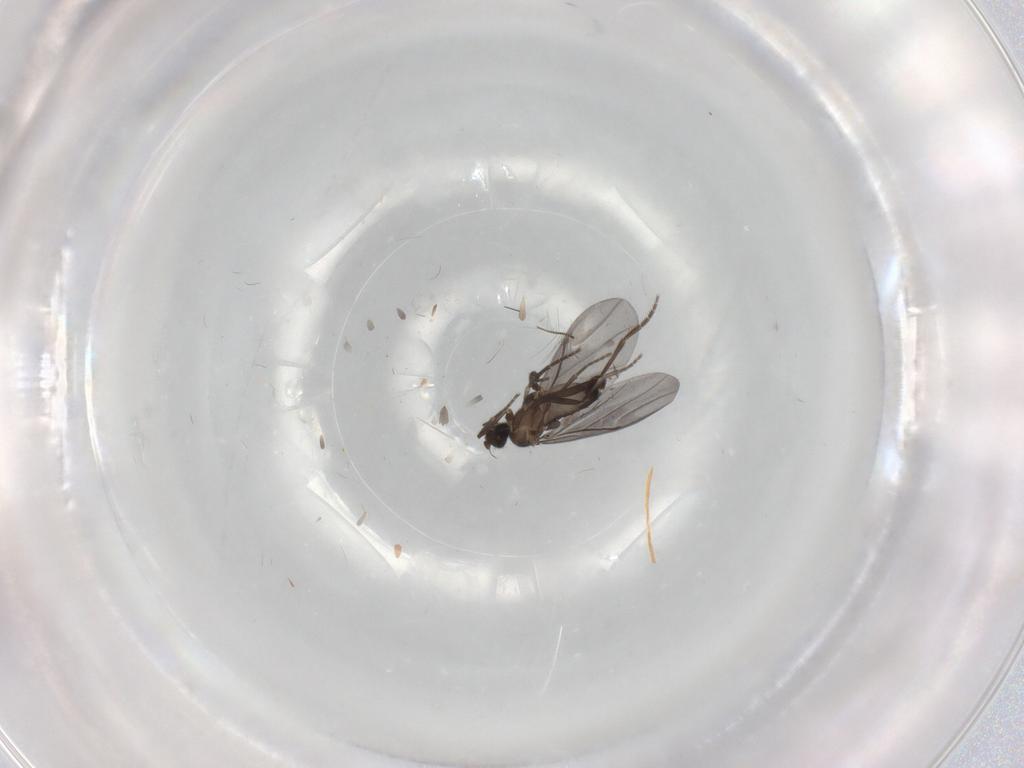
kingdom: Animalia
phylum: Arthropoda
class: Insecta
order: Diptera
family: Phoridae
